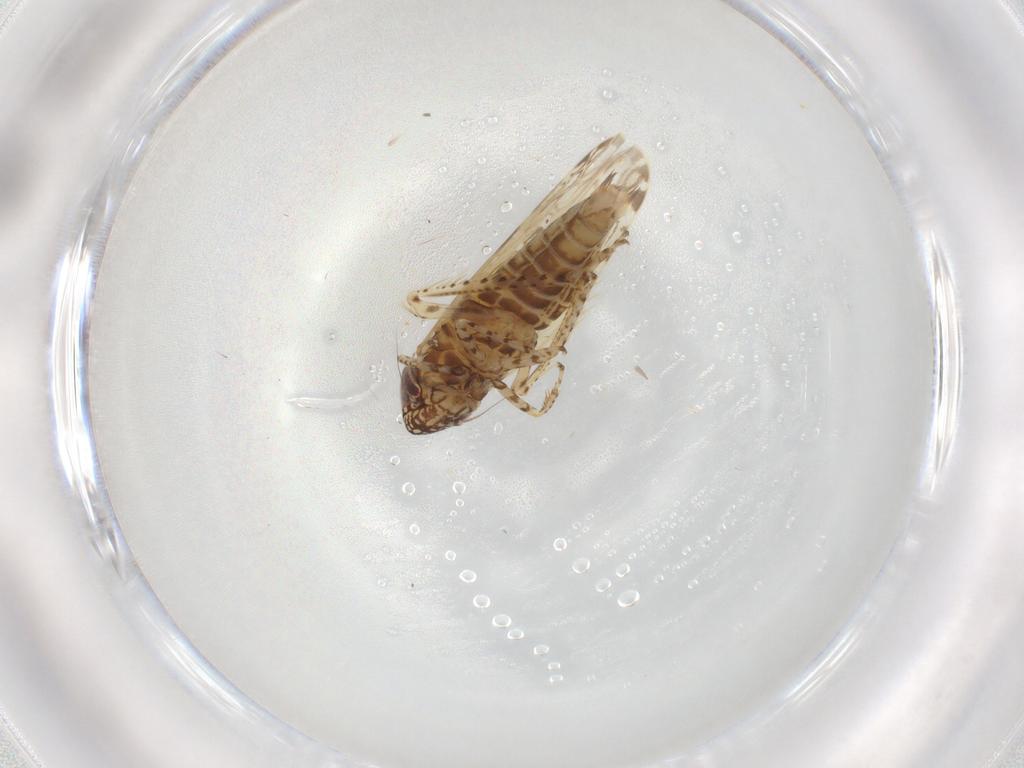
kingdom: Animalia
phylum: Arthropoda
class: Insecta
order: Hemiptera
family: Cicadellidae
